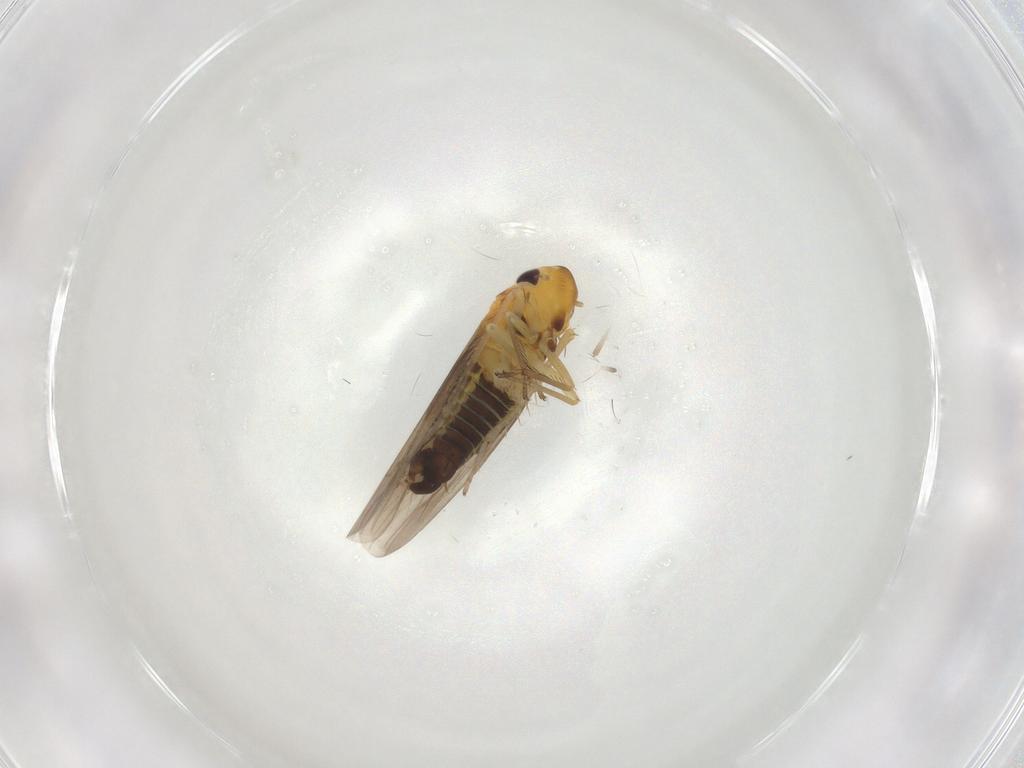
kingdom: Animalia
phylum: Arthropoda
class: Insecta
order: Hemiptera
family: Cicadellidae
